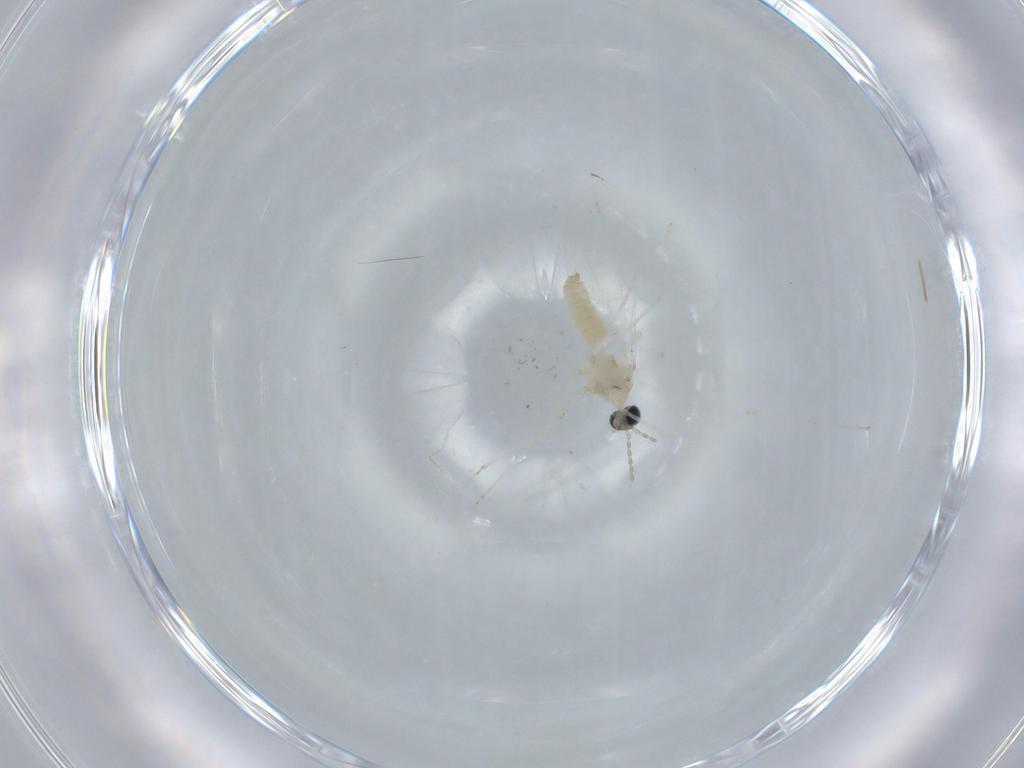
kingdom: Animalia
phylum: Arthropoda
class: Insecta
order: Diptera
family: Cecidomyiidae
